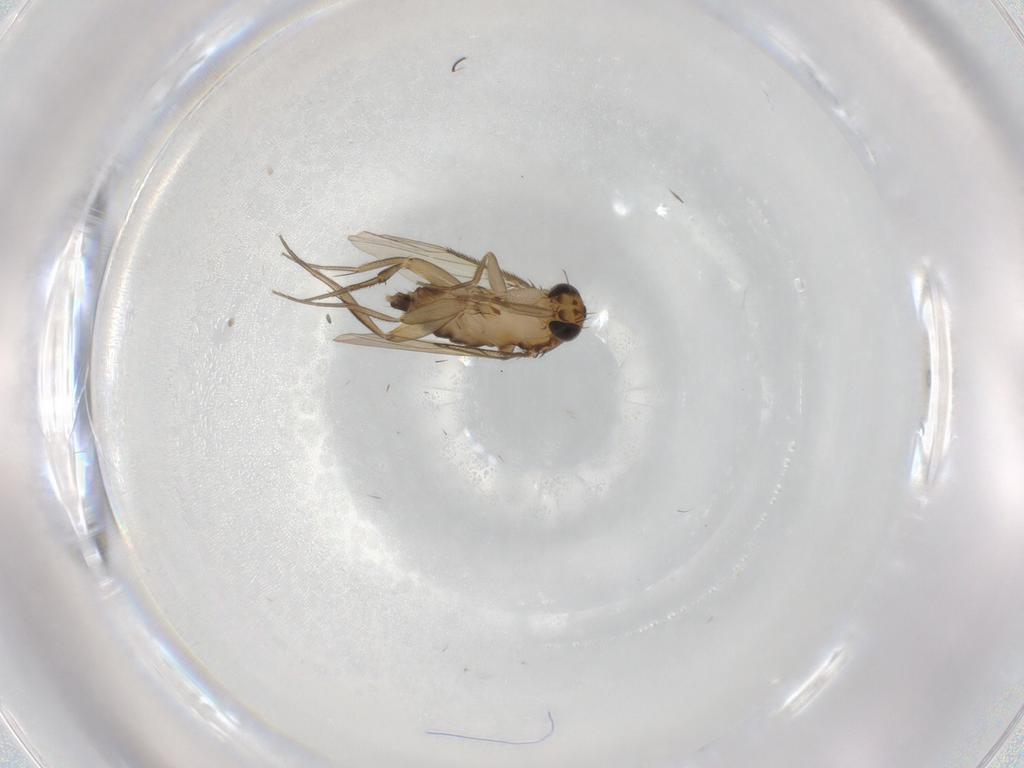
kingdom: Animalia
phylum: Arthropoda
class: Insecta
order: Diptera
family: Phoridae
